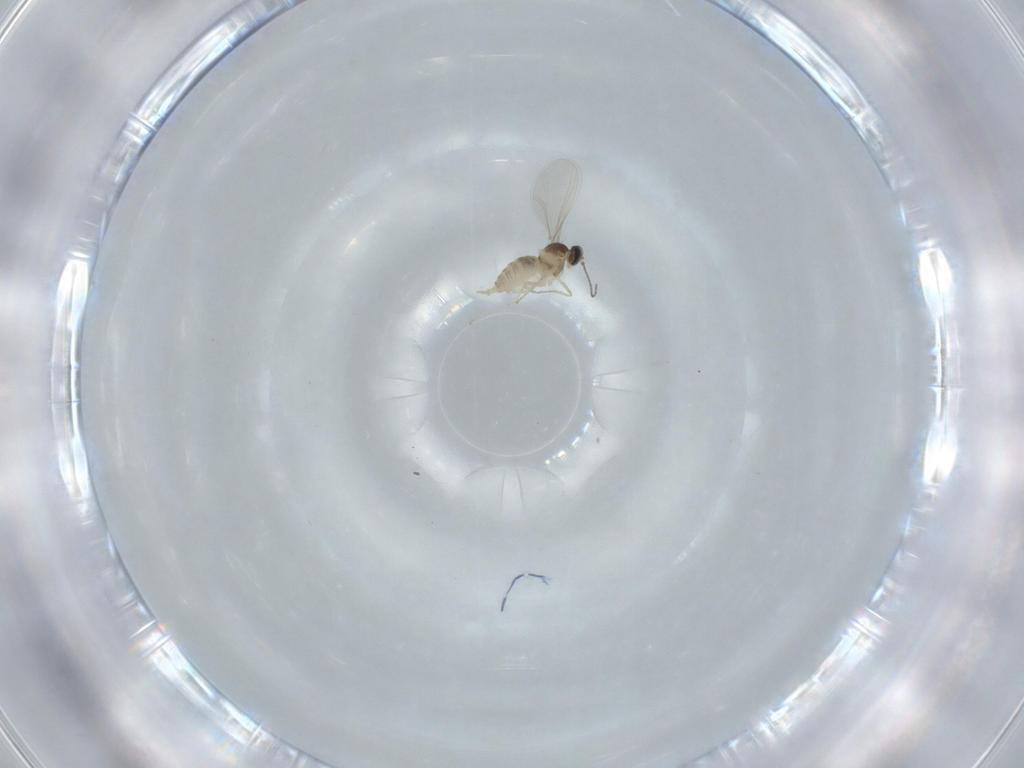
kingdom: Animalia
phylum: Arthropoda
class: Insecta
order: Diptera
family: Cecidomyiidae
